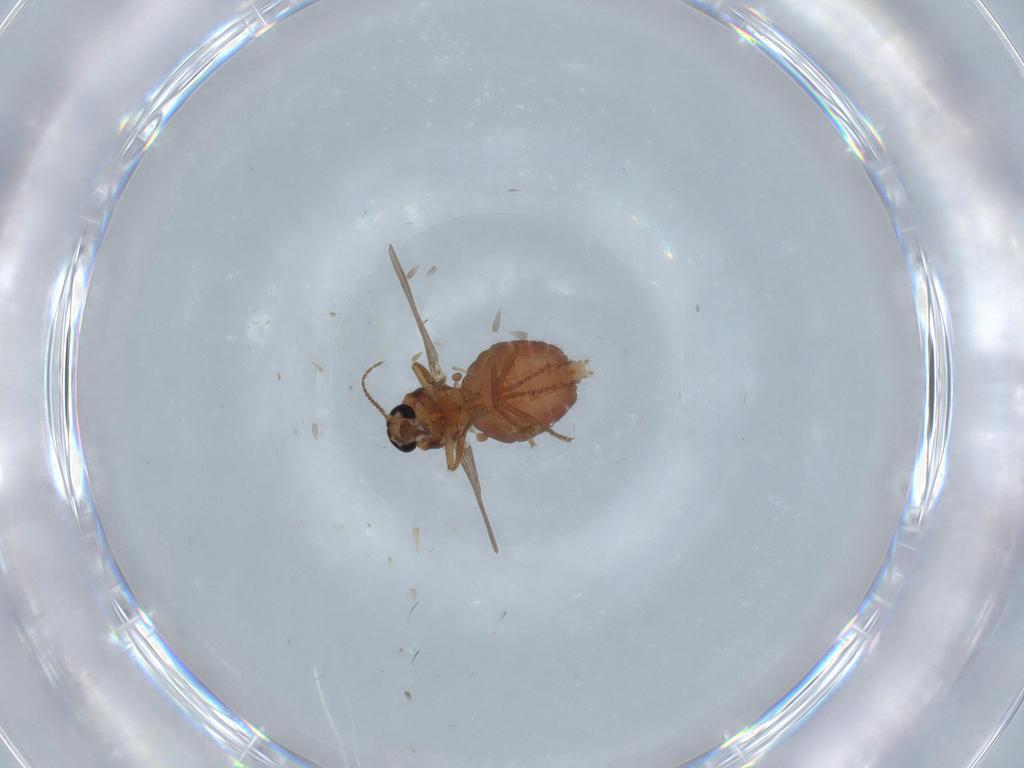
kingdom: Animalia
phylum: Arthropoda
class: Insecta
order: Diptera
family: Ceratopogonidae
